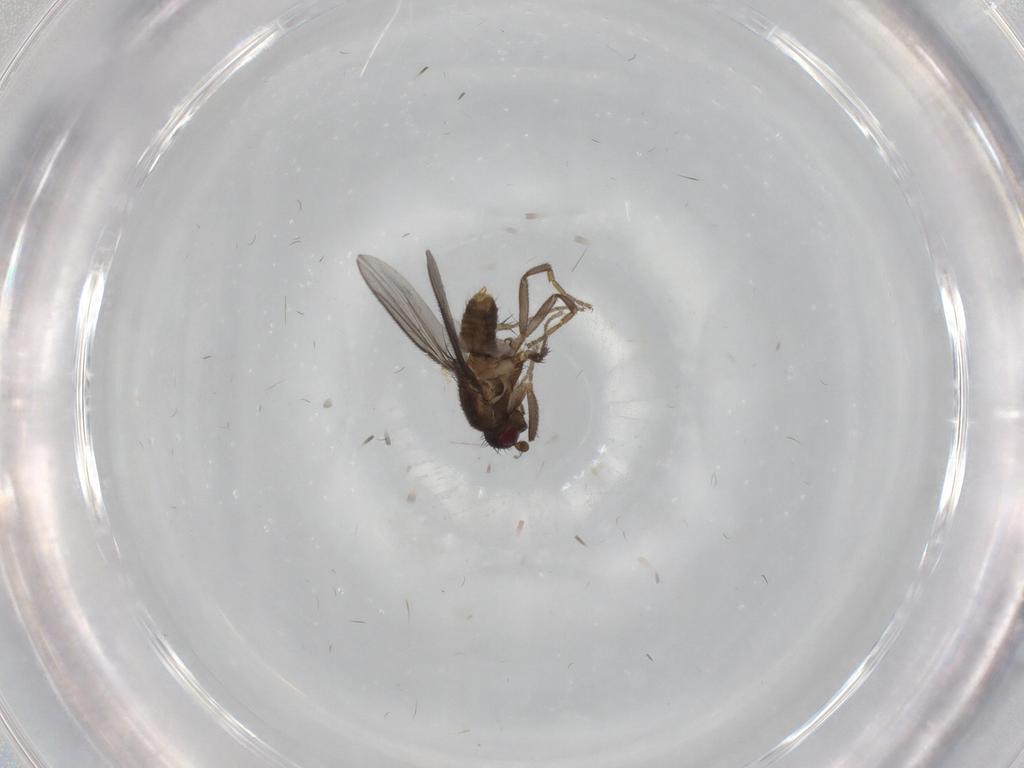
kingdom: Animalia
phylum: Arthropoda
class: Insecta
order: Diptera
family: Sphaeroceridae
